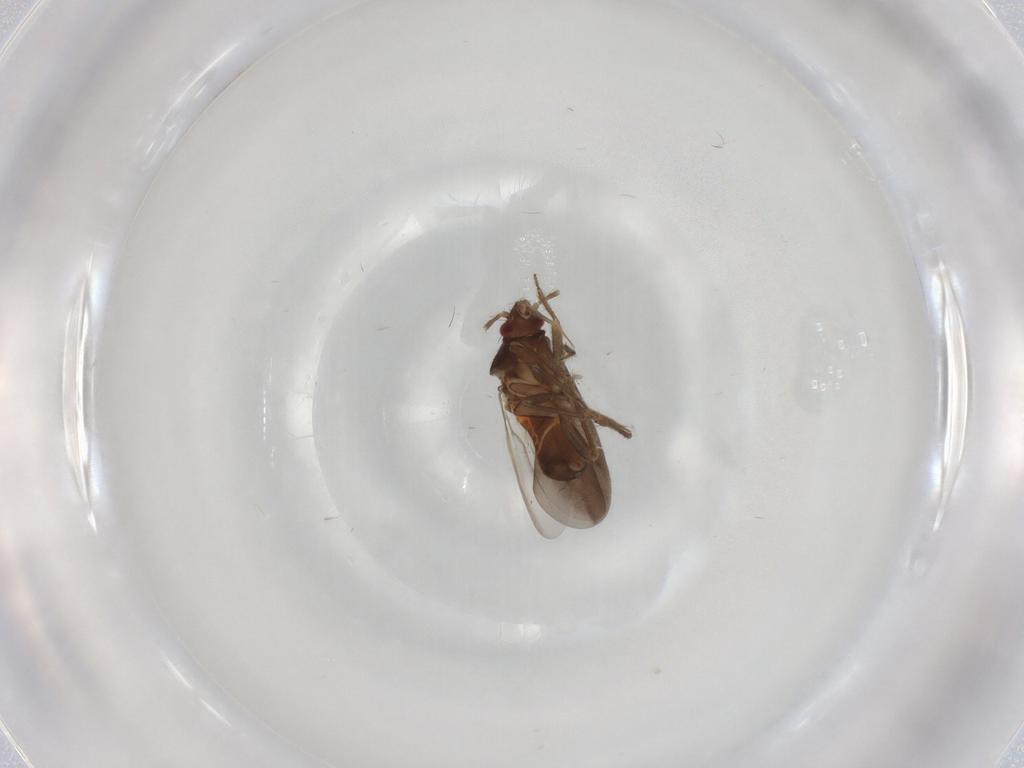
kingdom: Animalia
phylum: Arthropoda
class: Insecta
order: Hemiptera
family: Ceratocombidae
